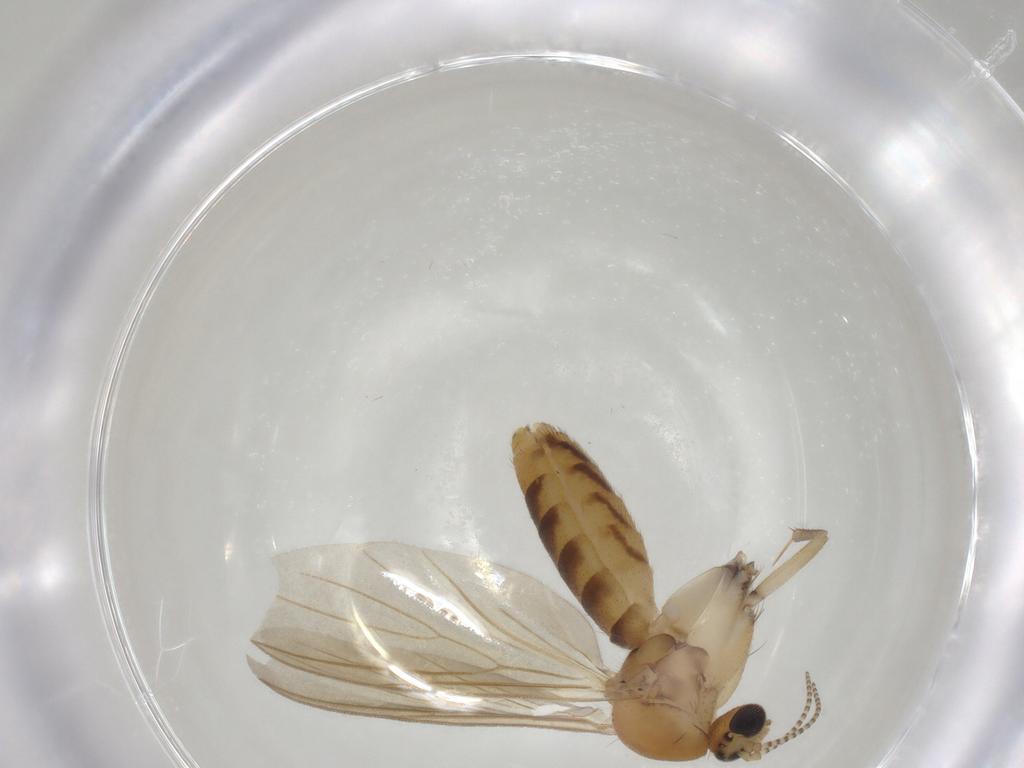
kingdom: Animalia
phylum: Arthropoda
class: Insecta
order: Diptera
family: Mycetophilidae
